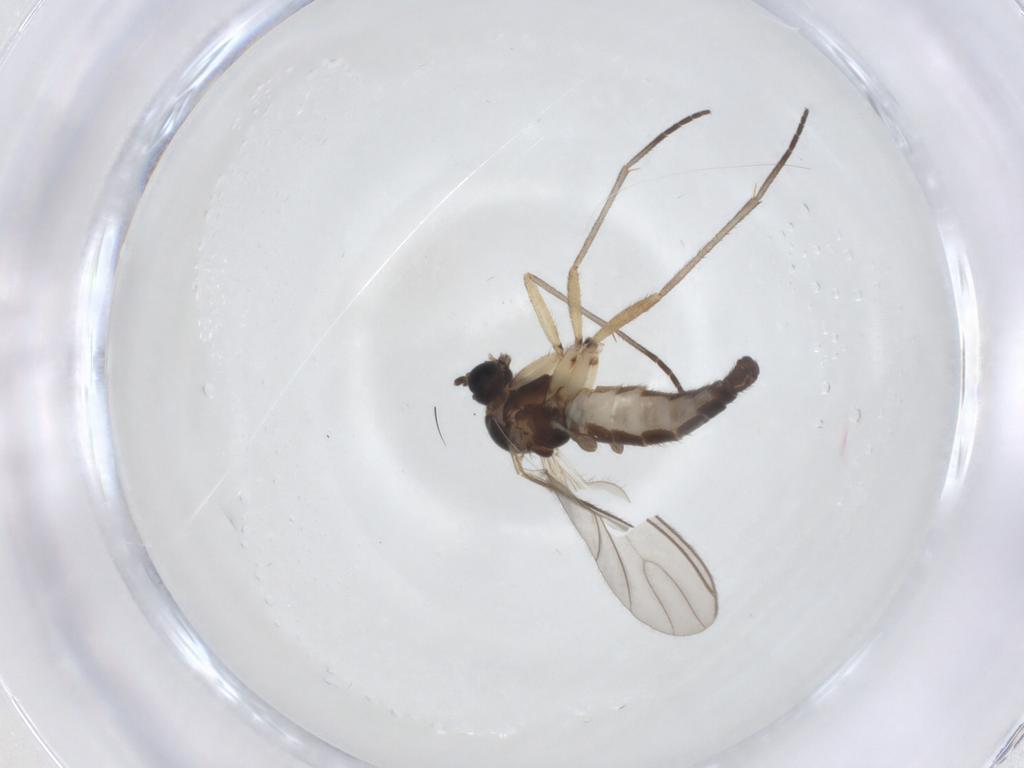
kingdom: Animalia
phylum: Arthropoda
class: Insecta
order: Diptera
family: Sciaridae
